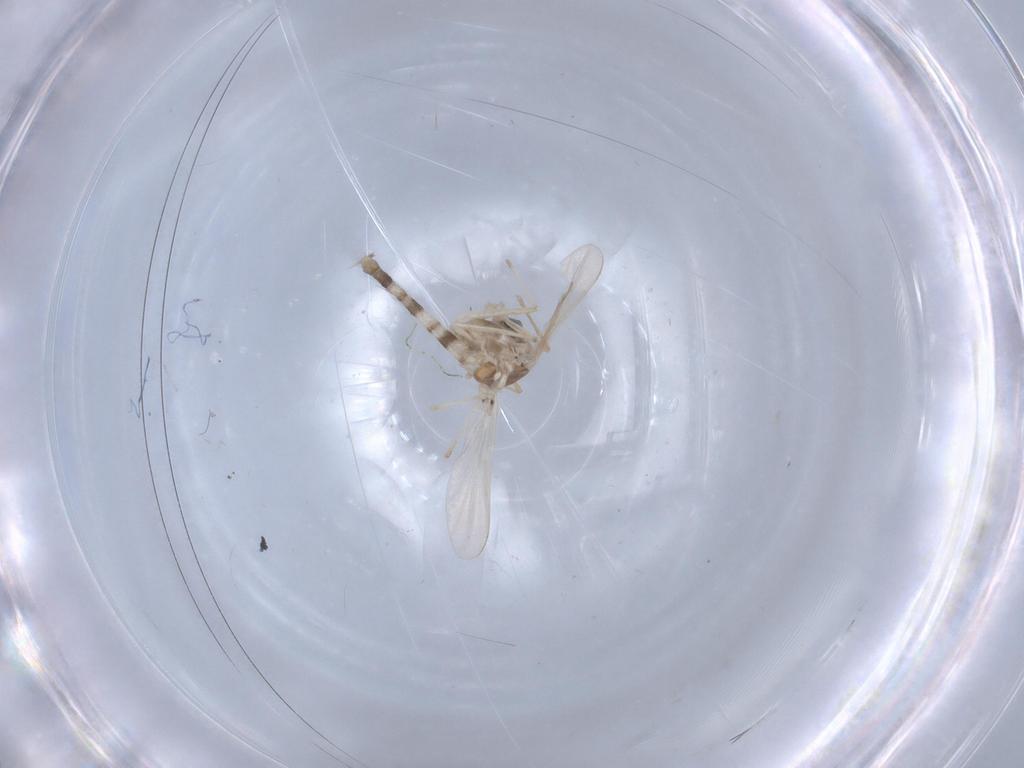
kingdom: Animalia
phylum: Arthropoda
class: Insecta
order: Diptera
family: Chironomidae
